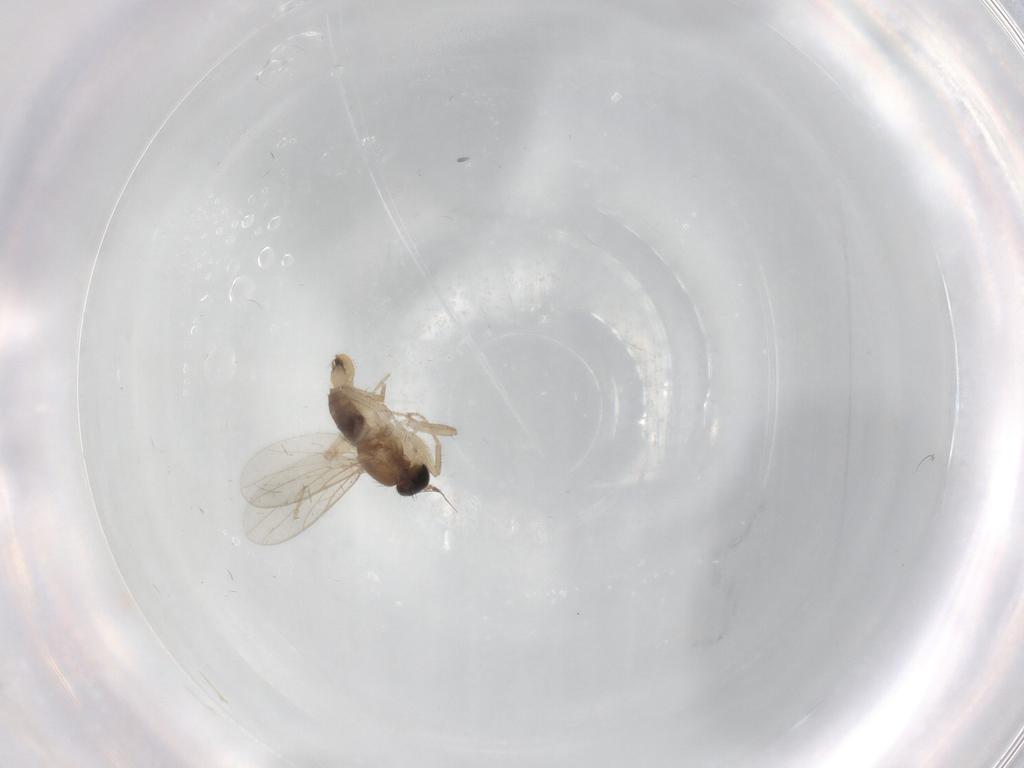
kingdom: Animalia
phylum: Arthropoda
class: Insecta
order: Diptera
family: Hybotidae
